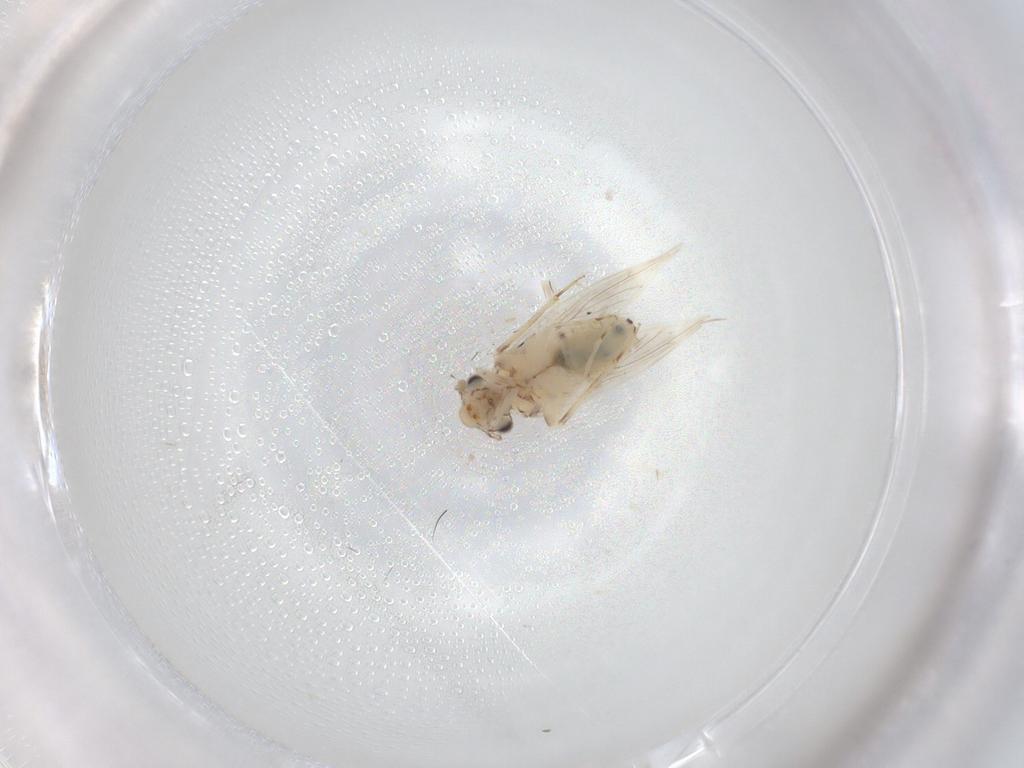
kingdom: Animalia
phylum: Arthropoda
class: Insecta
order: Psocodea
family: Lepidopsocidae
